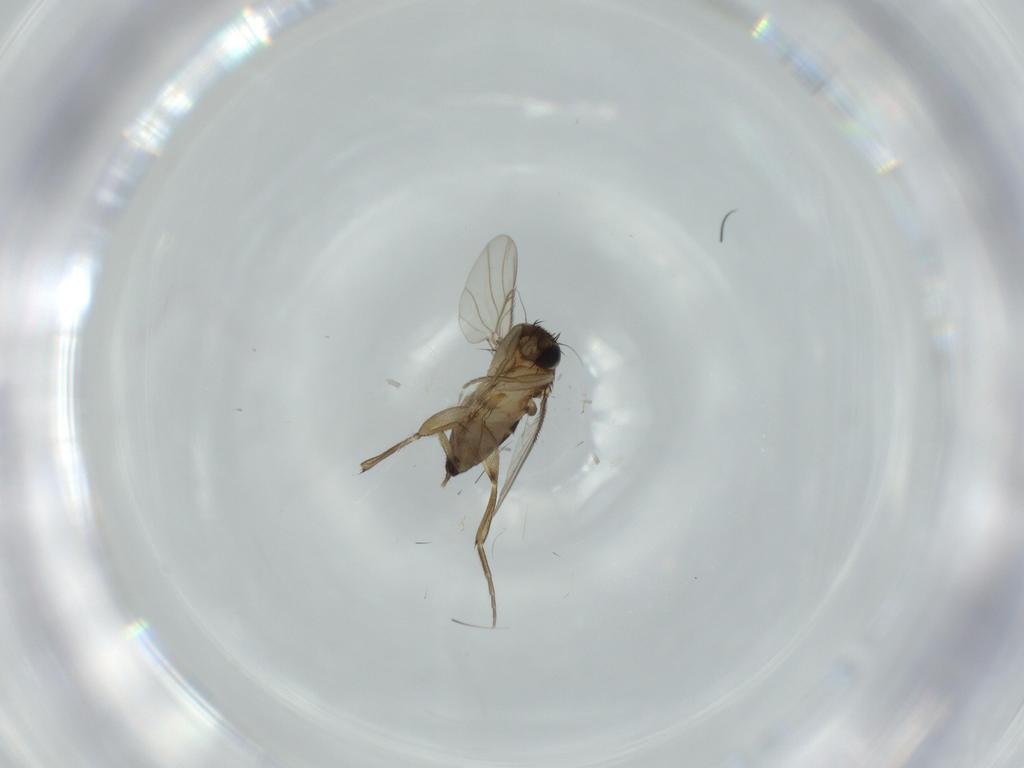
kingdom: Animalia
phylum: Arthropoda
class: Insecta
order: Diptera
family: Phoridae
